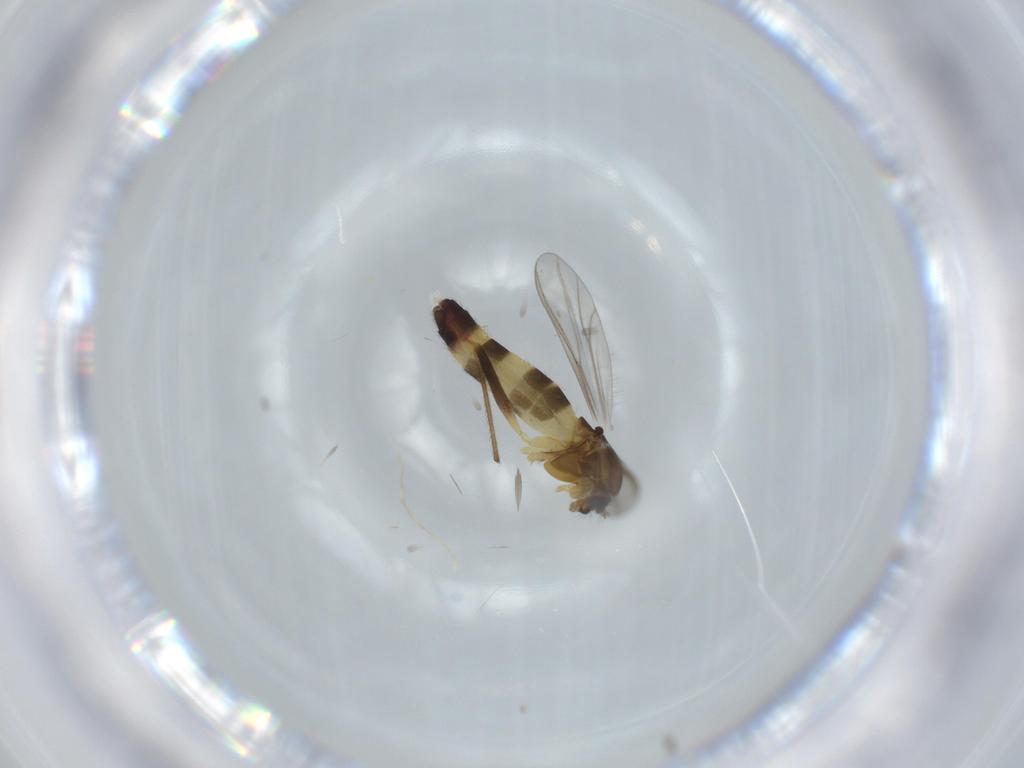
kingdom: Animalia
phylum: Arthropoda
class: Insecta
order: Diptera
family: Chironomidae
